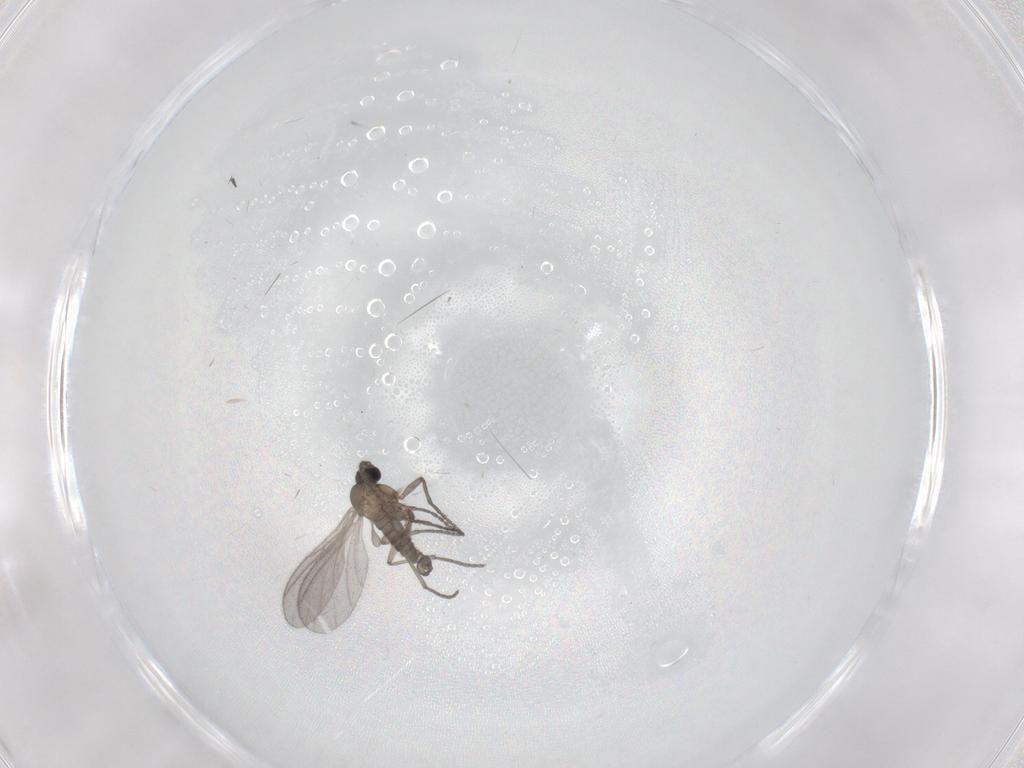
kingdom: Animalia
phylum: Arthropoda
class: Insecta
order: Diptera
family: Sciaridae
